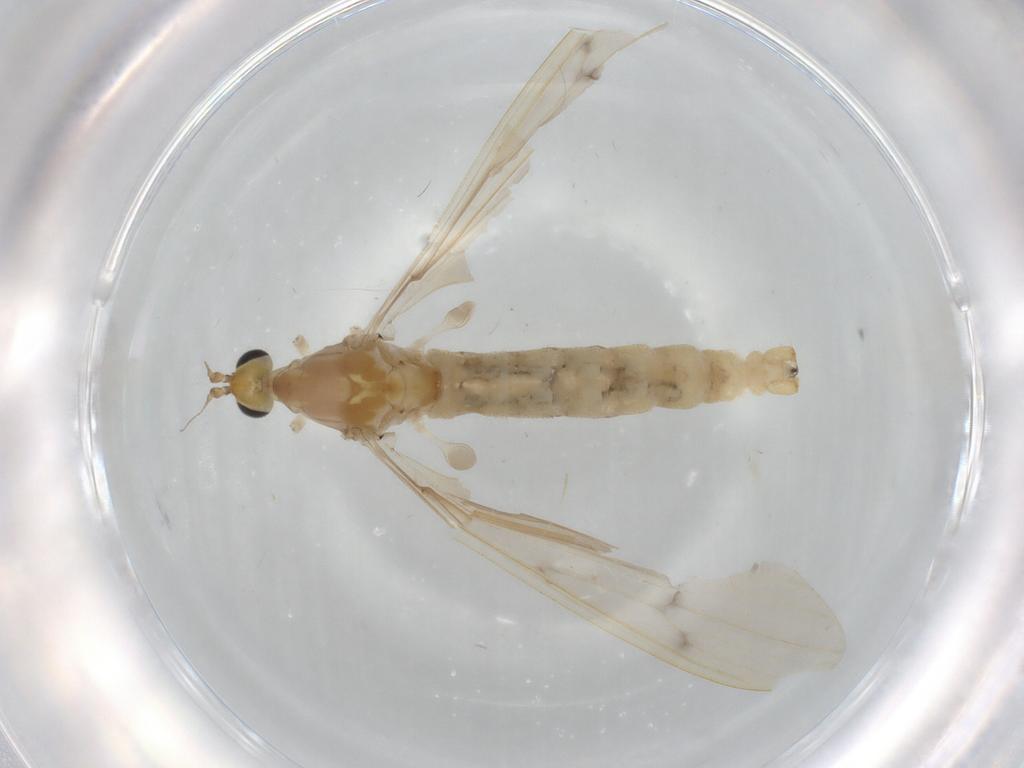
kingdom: Animalia
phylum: Arthropoda
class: Insecta
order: Diptera
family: Limoniidae
